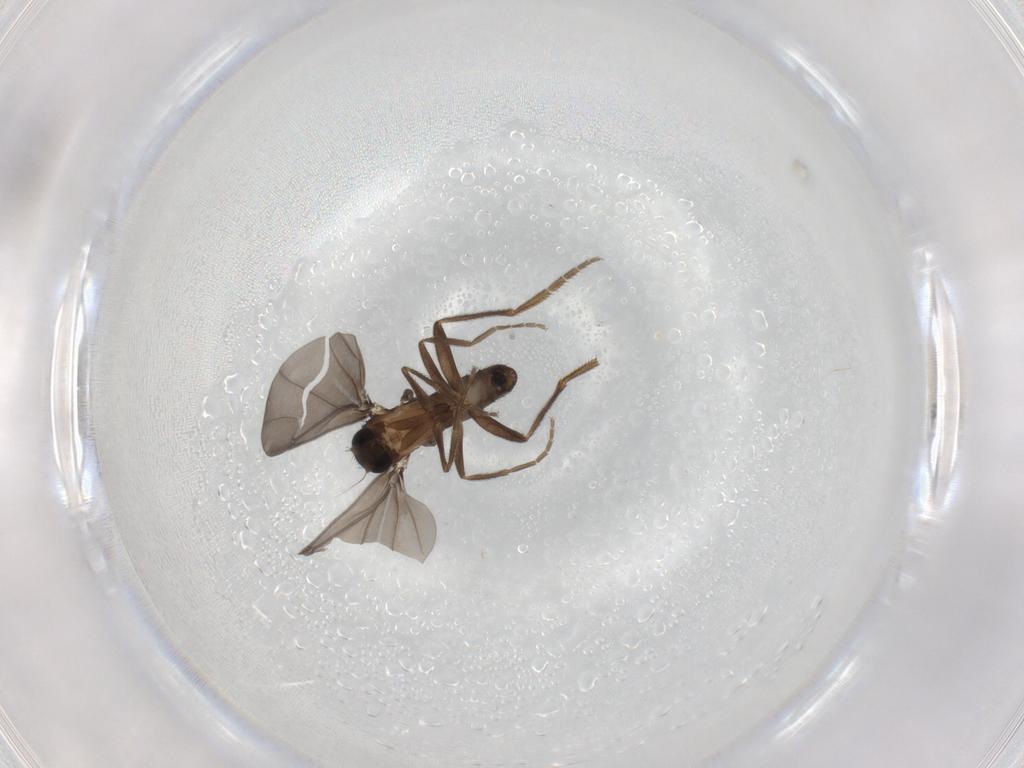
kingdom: Animalia
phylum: Arthropoda
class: Insecta
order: Diptera
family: Phoridae
